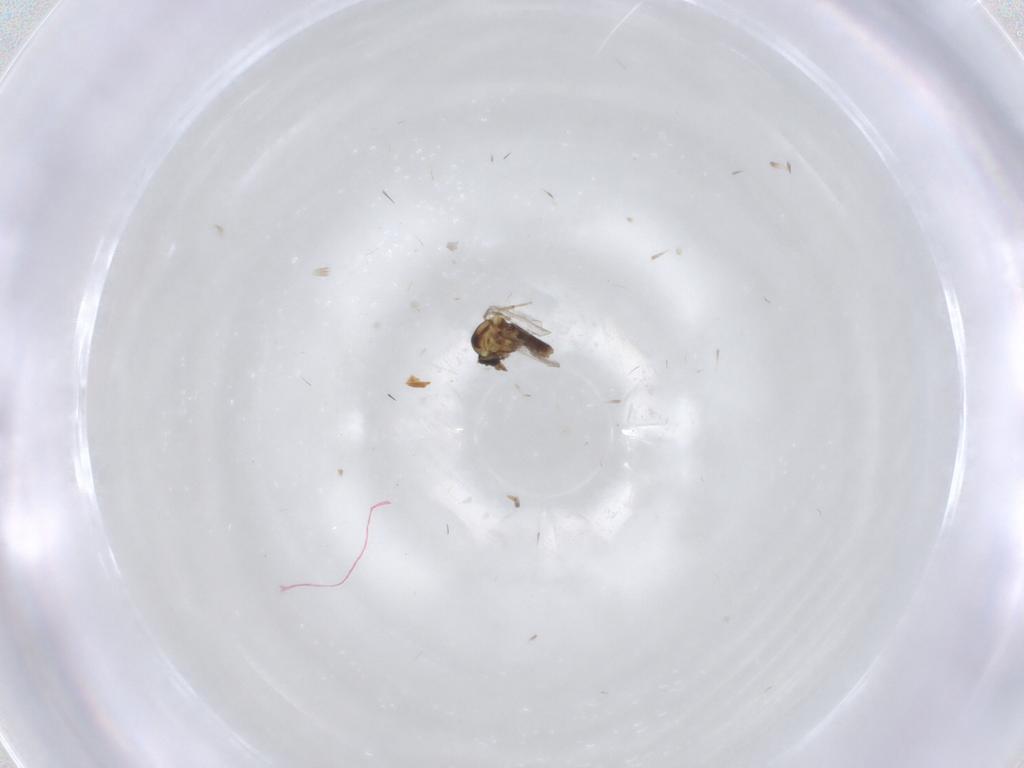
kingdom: Animalia
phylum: Arthropoda
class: Insecta
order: Diptera
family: Ceratopogonidae
